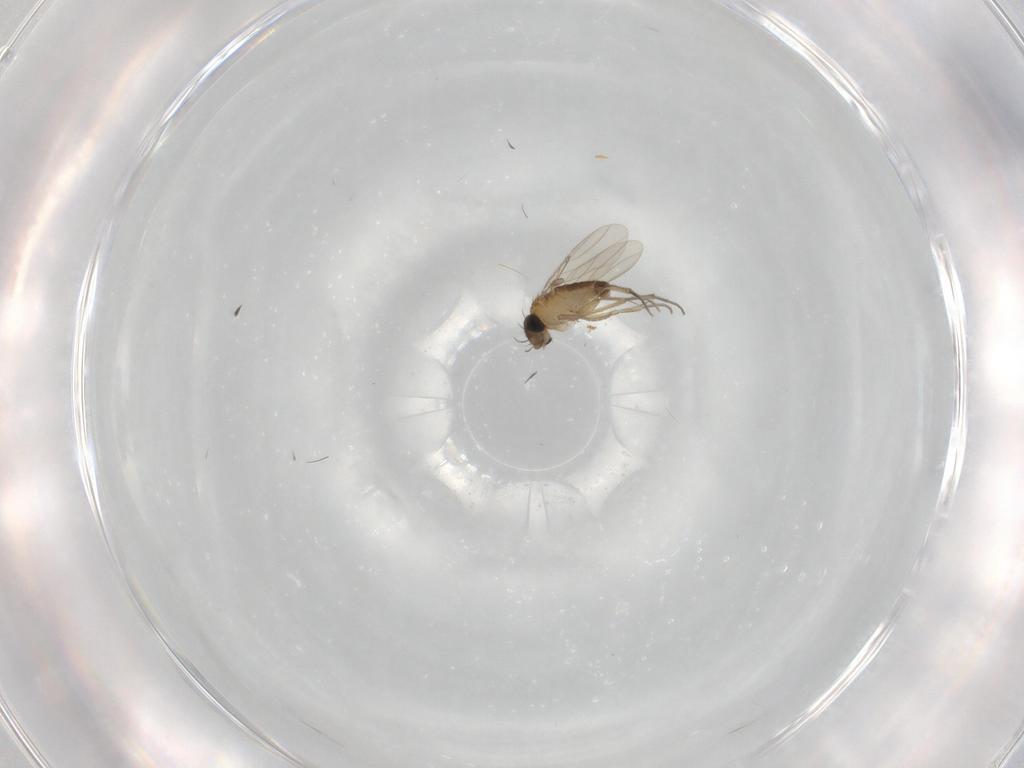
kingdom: Animalia
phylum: Arthropoda
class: Insecta
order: Diptera
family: Phoridae
